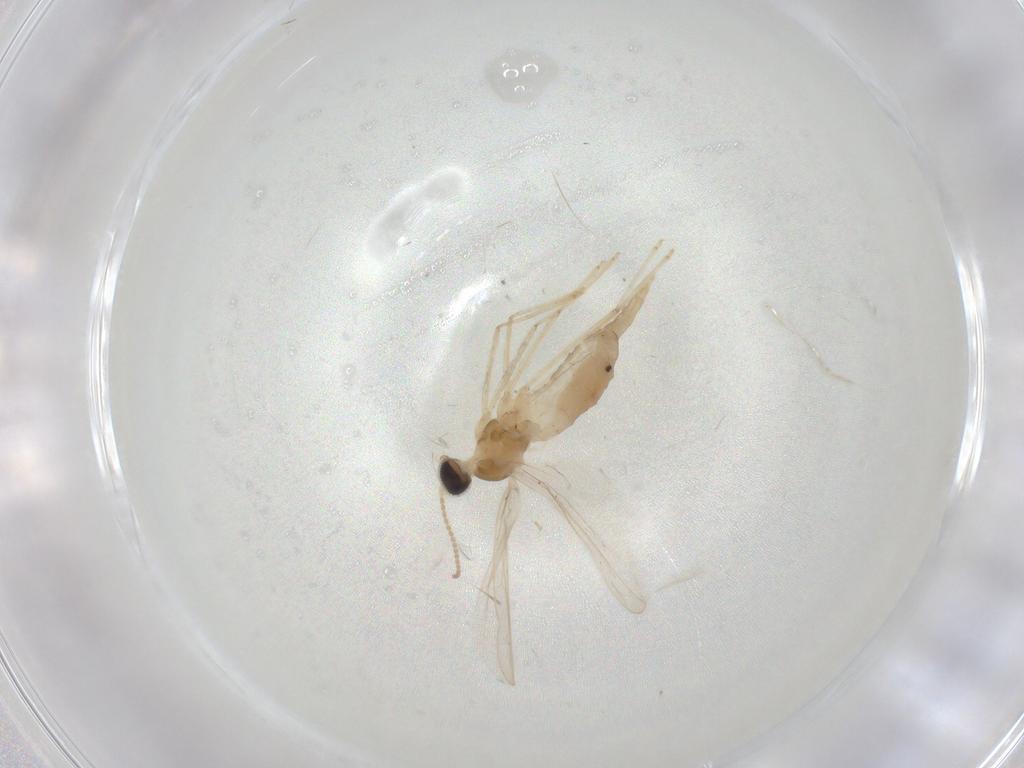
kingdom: Animalia
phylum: Arthropoda
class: Insecta
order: Diptera
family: Cecidomyiidae
